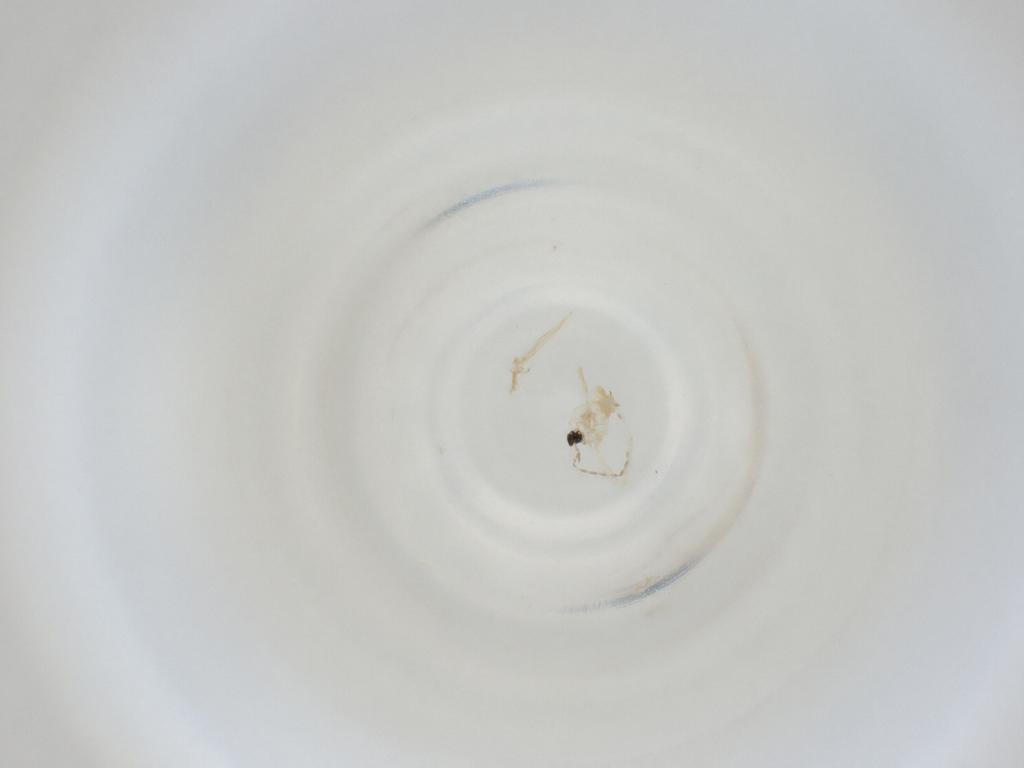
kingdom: Animalia
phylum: Arthropoda
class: Insecta
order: Diptera
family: Cecidomyiidae
